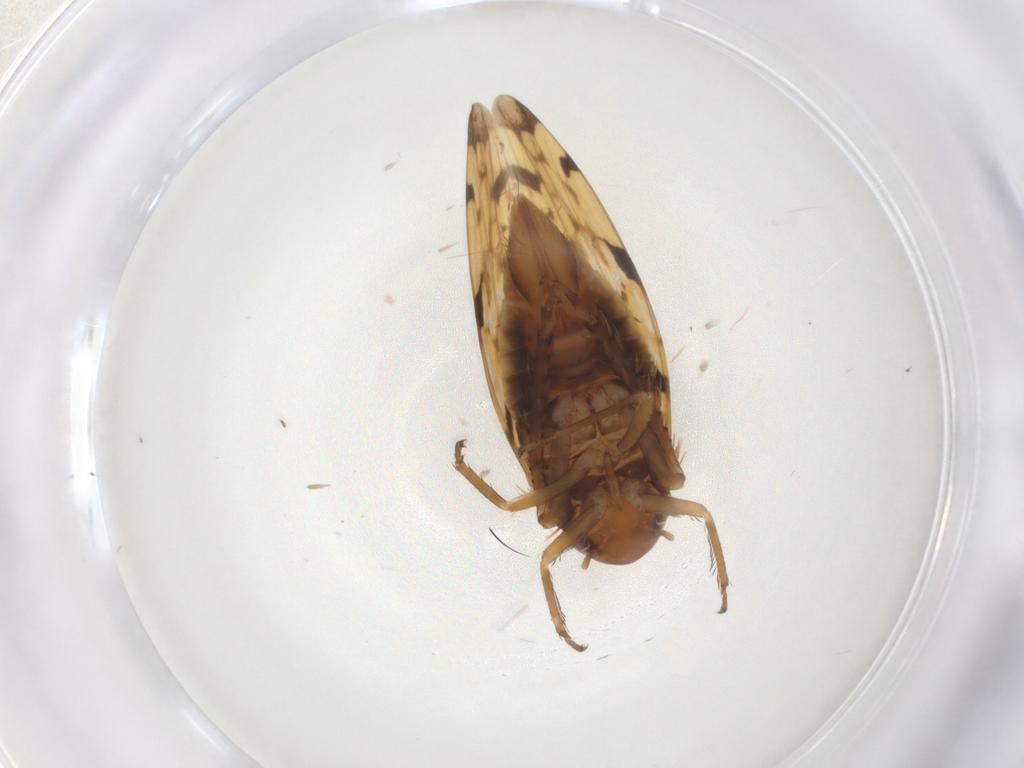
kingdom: Animalia
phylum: Arthropoda
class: Insecta
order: Hemiptera
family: Cicadellidae
